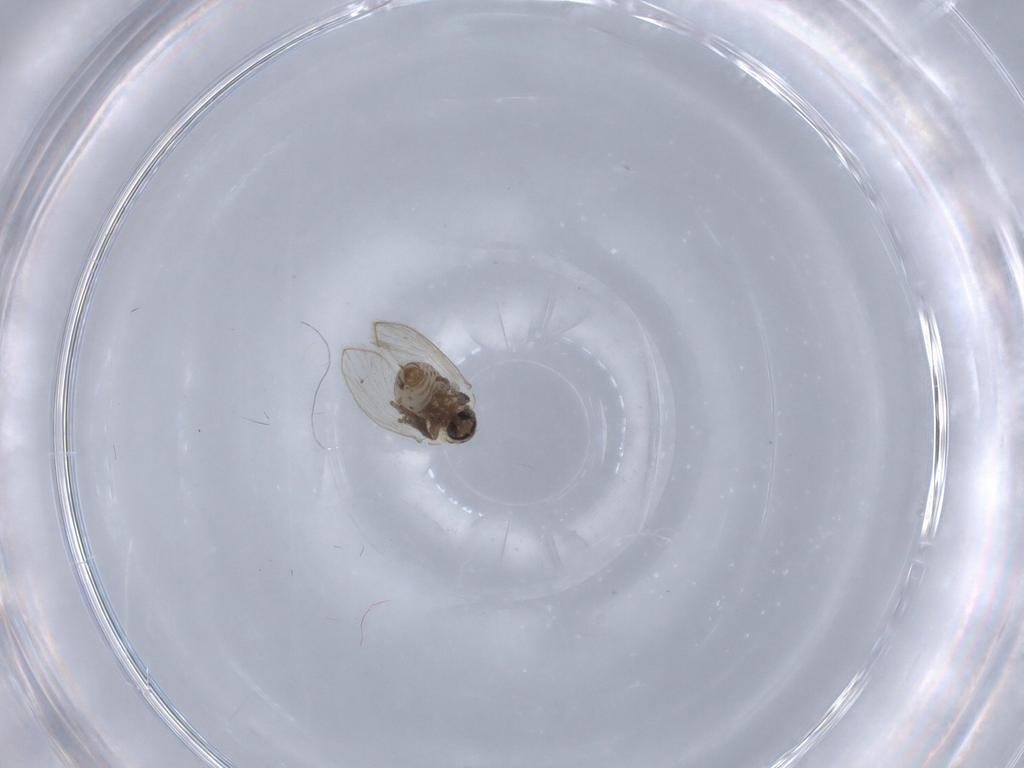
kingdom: Animalia
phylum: Arthropoda
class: Insecta
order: Diptera
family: Psychodidae
